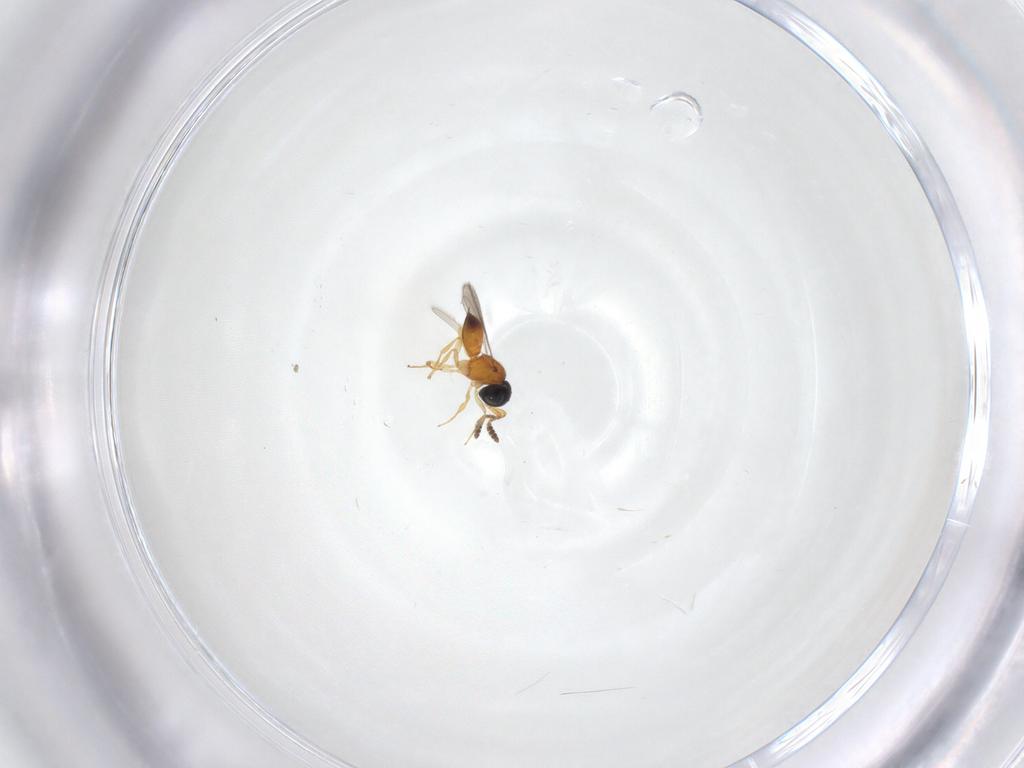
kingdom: Animalia
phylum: Arthropoda
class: Insecta
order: Hymenoptera
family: Scelionidae
